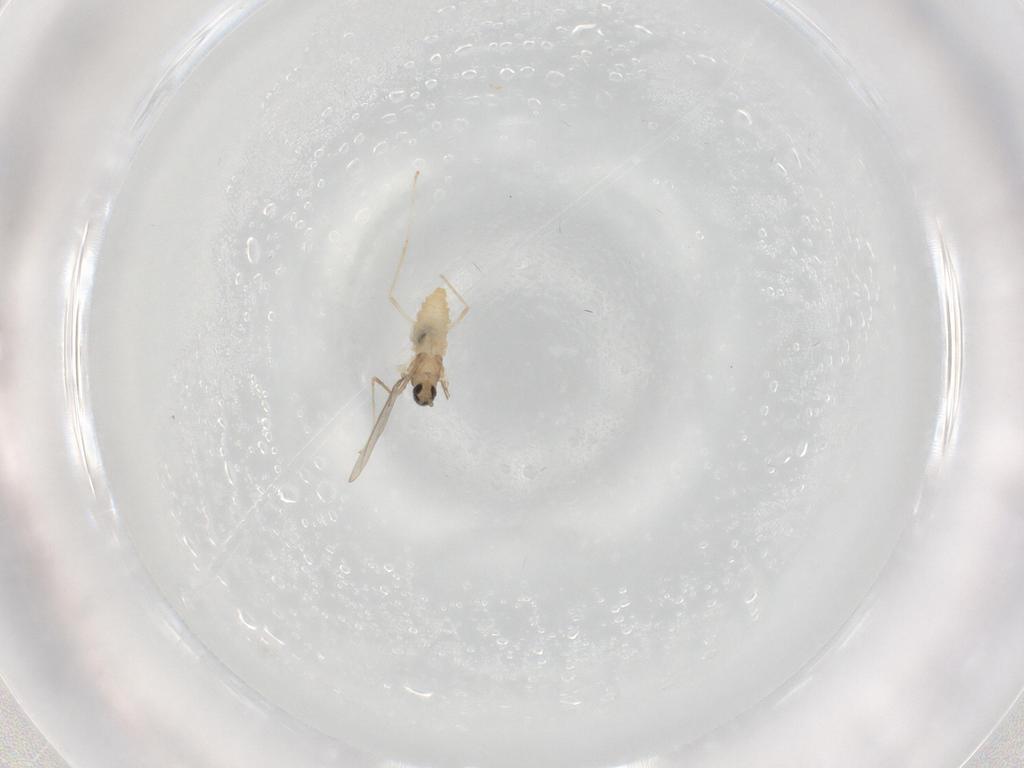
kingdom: Animalia
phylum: Arthropoda
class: Insecta
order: Diptera
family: Cecidomyiidae
